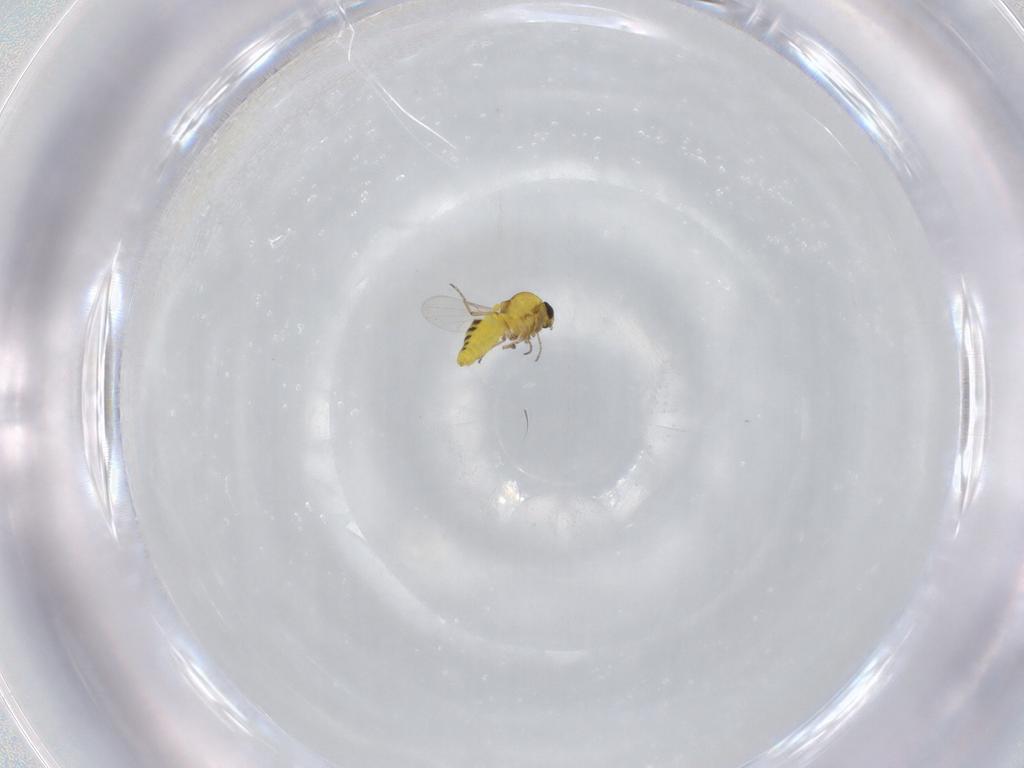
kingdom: Animalia
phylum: Arthropoda
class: Insecta
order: Diptera
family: Ceratopogonidae
